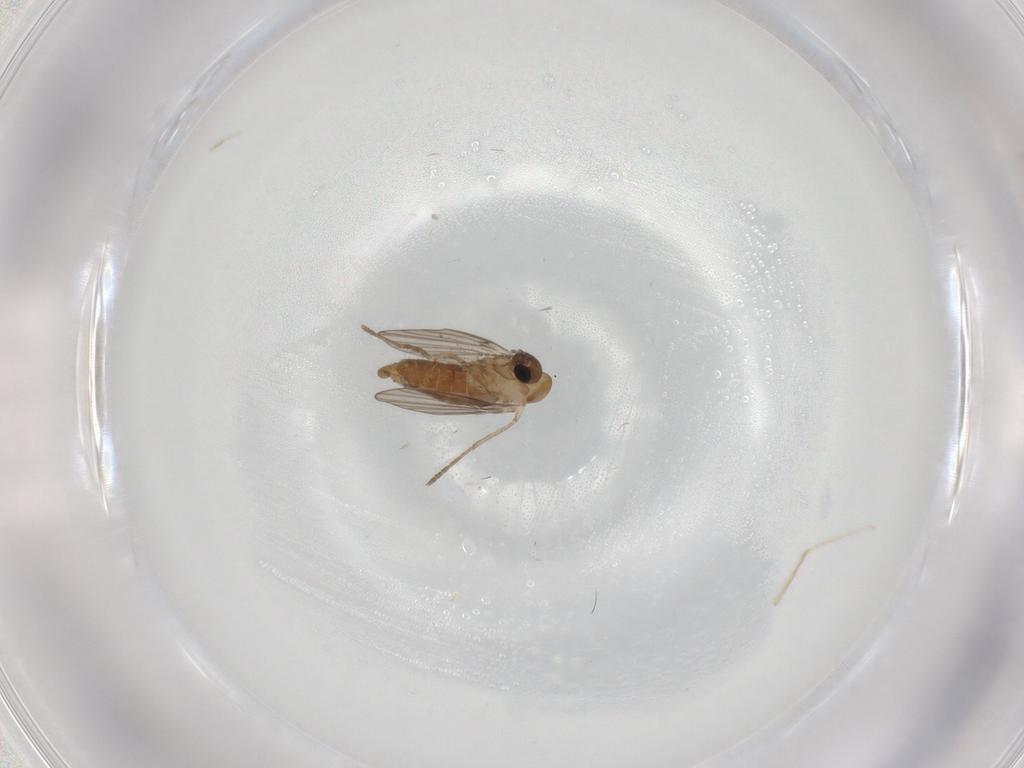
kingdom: Animalia
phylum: Arthropoda
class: Insecta
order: Diptera
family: Psychodidae
